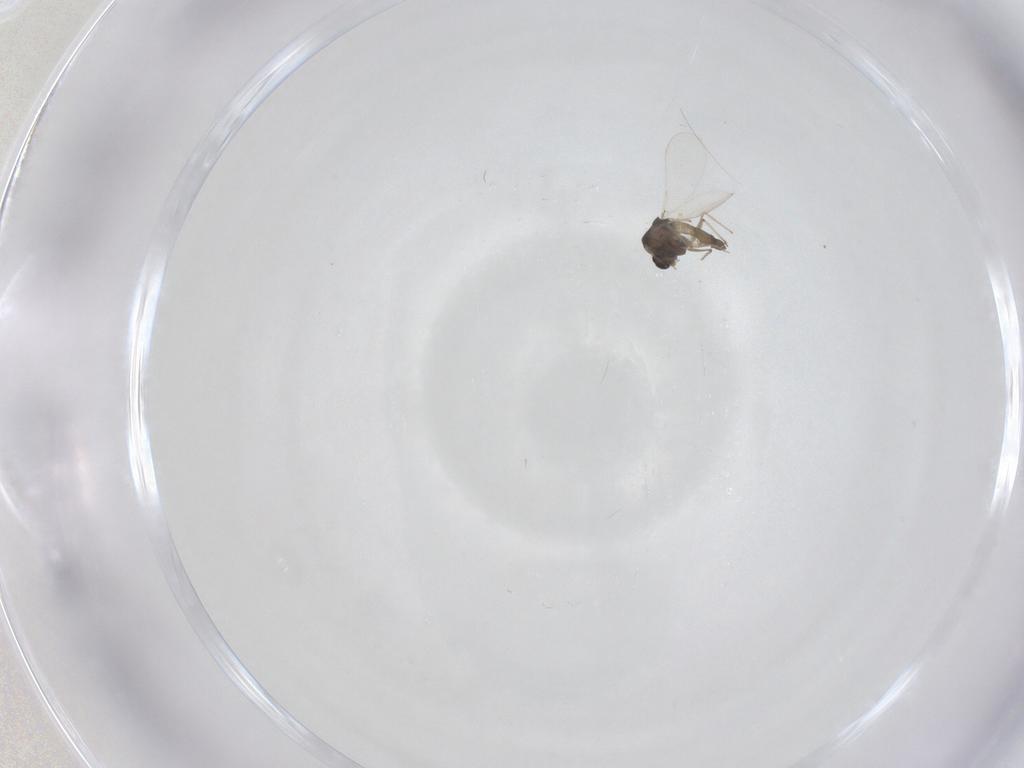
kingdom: Animalia
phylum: Arthropoda
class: Insecta
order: Diptera
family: Chironomidae
